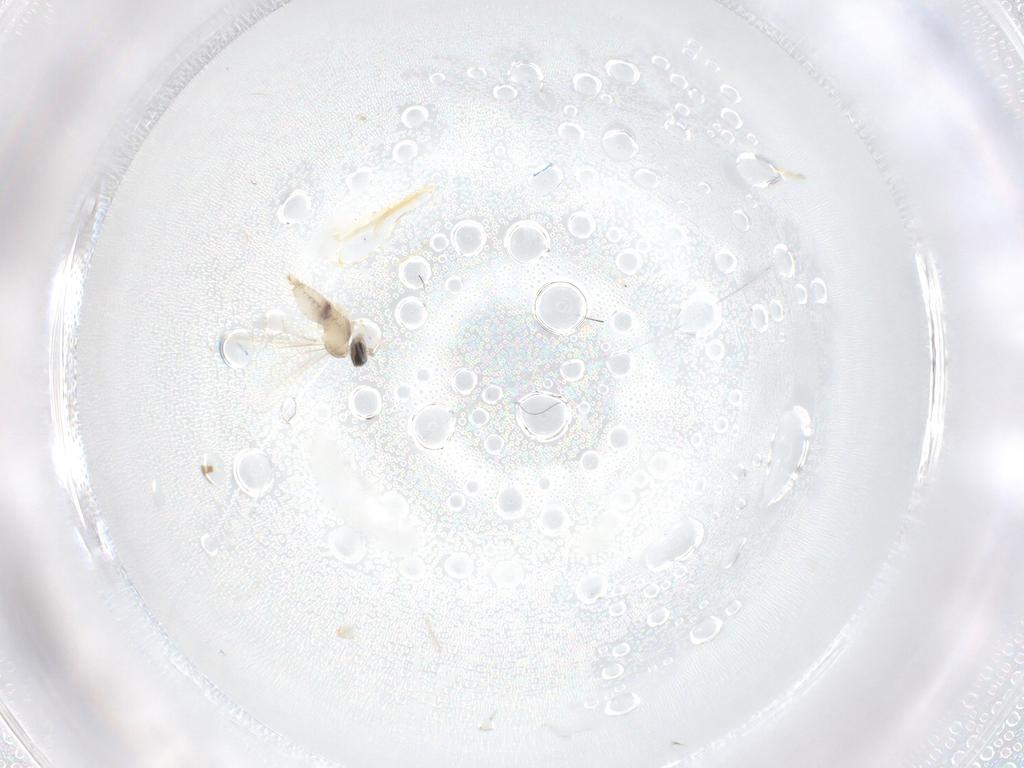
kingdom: Animalia
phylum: Arthropoda
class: Insecta
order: Diptera
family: Cecidomyiidae
